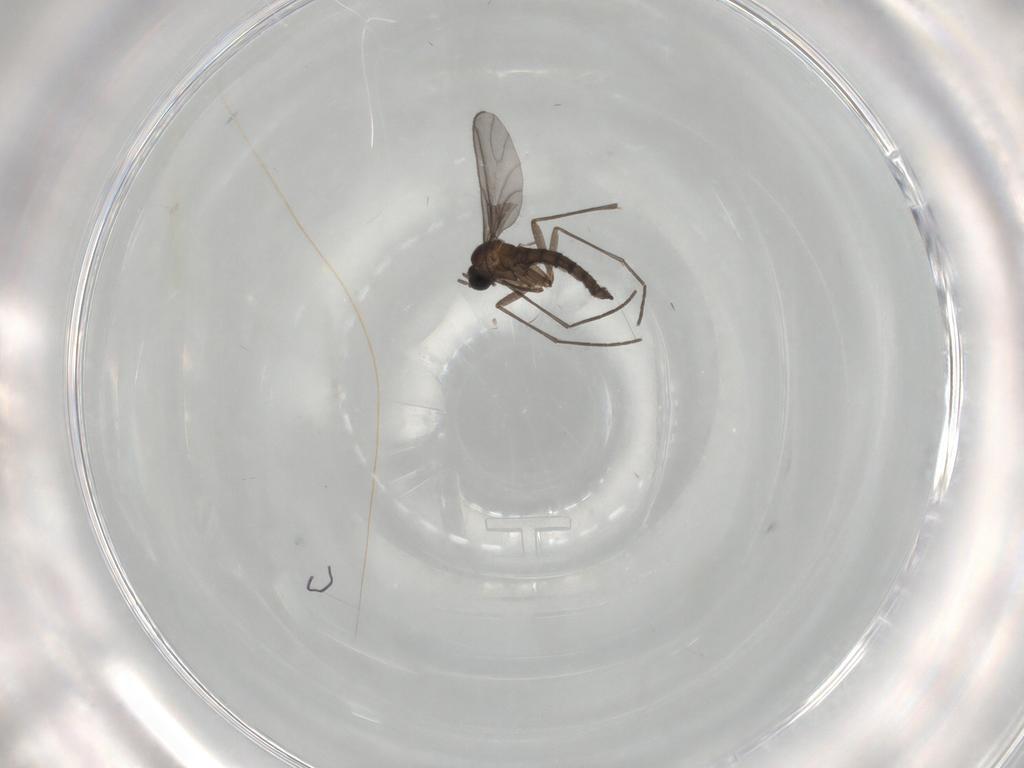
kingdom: Animalia
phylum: Arthropoda
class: Insecta
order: Diptera
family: Sciaridae
